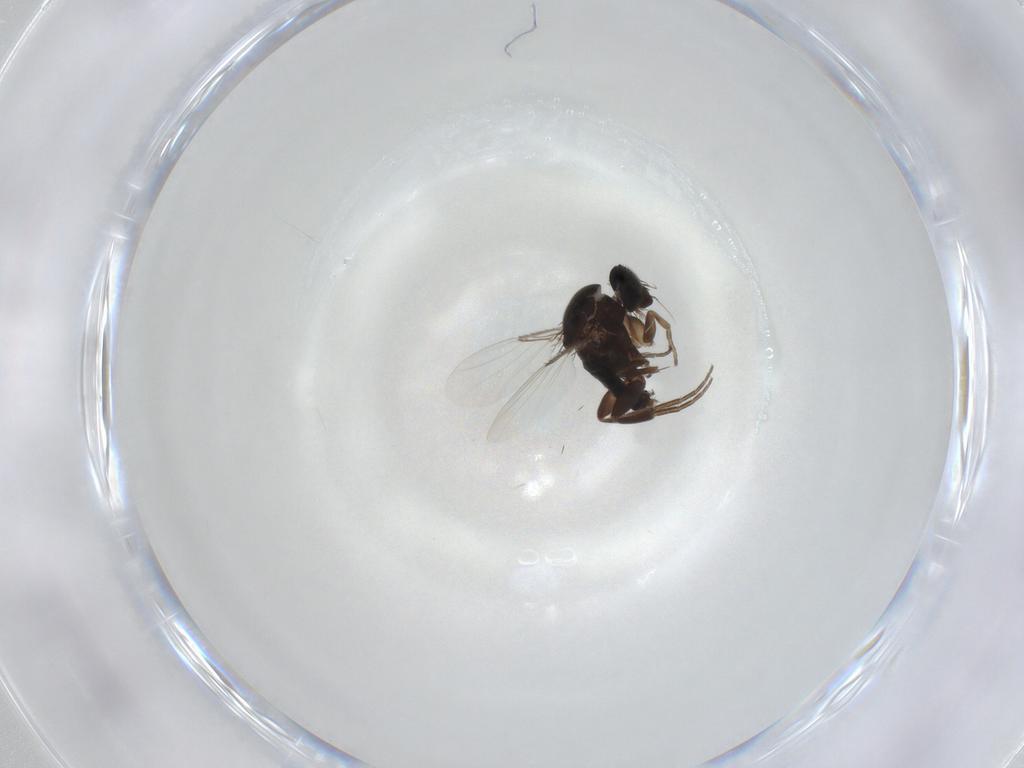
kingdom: Animalia
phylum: Arthropoda
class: Insecta
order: Diptera
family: Phoridae
